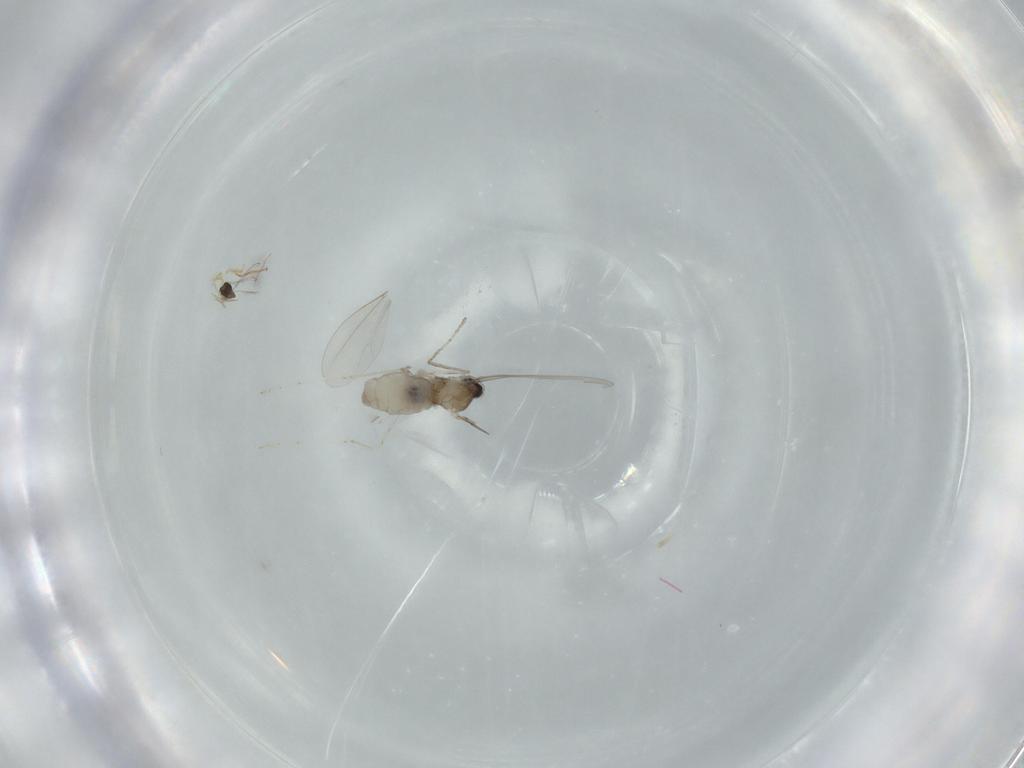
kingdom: Animalia
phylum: Arthropoda
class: Insecta
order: Diptera
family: Cecidomyiidae
